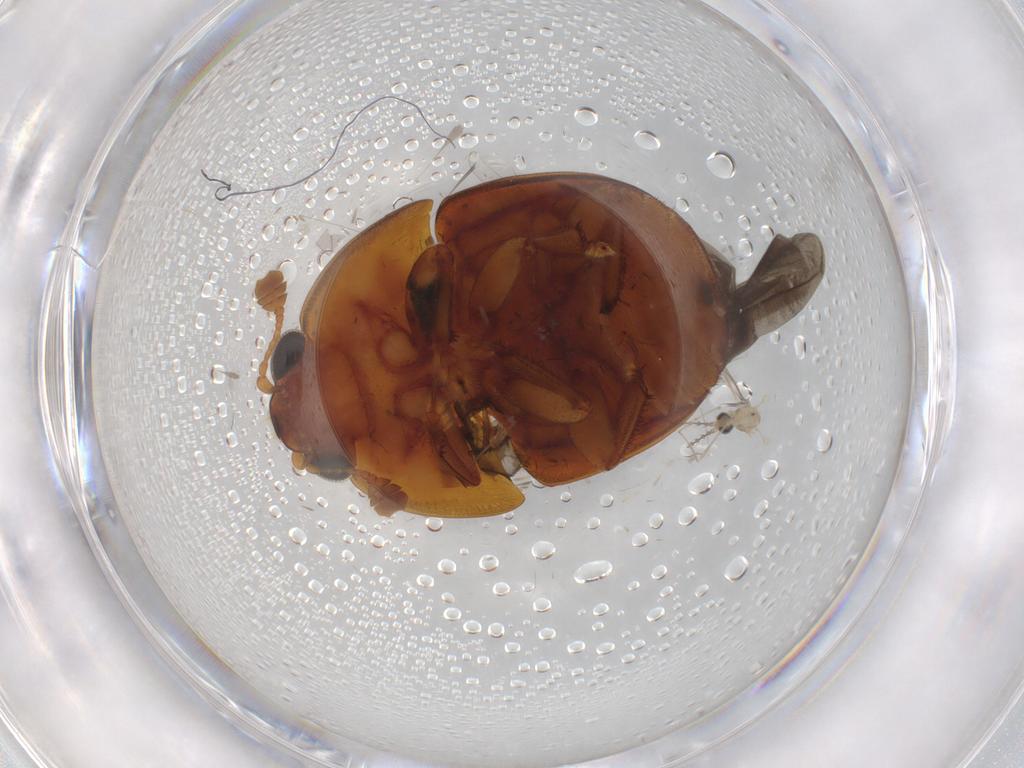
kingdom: Animalia
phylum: Arthropoda
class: Insecta
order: Coleoptera
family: Nitidulidae
